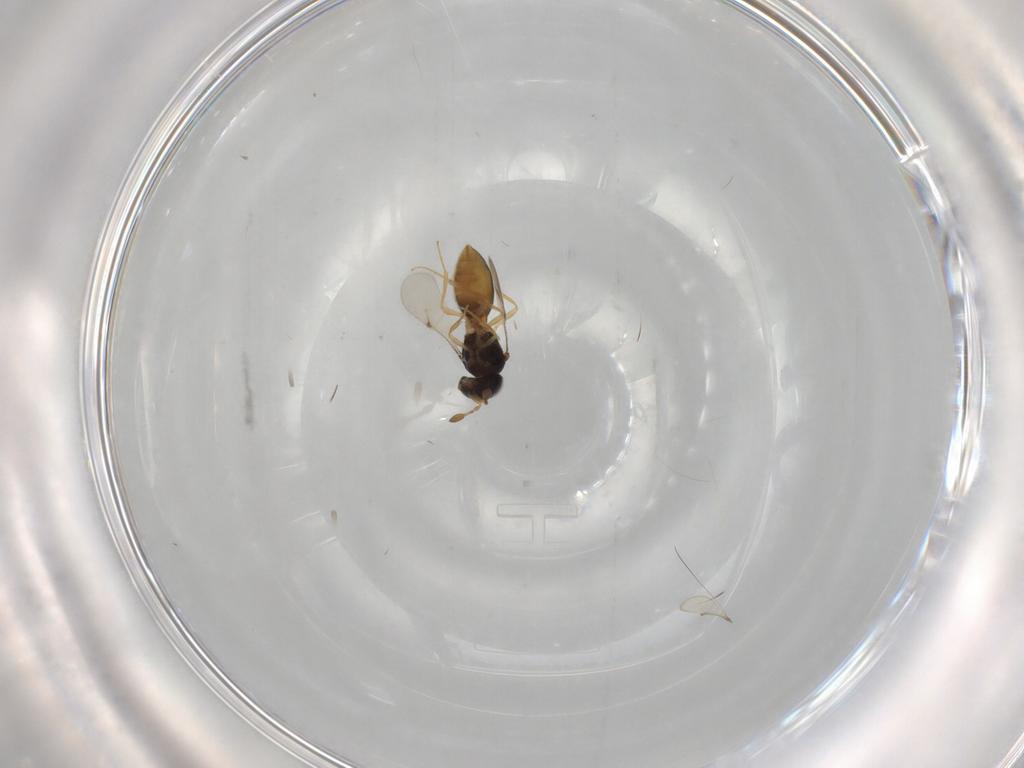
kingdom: Animalia
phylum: Arthropoda
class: Insecta
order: Hymenoptera
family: Scelionidae
